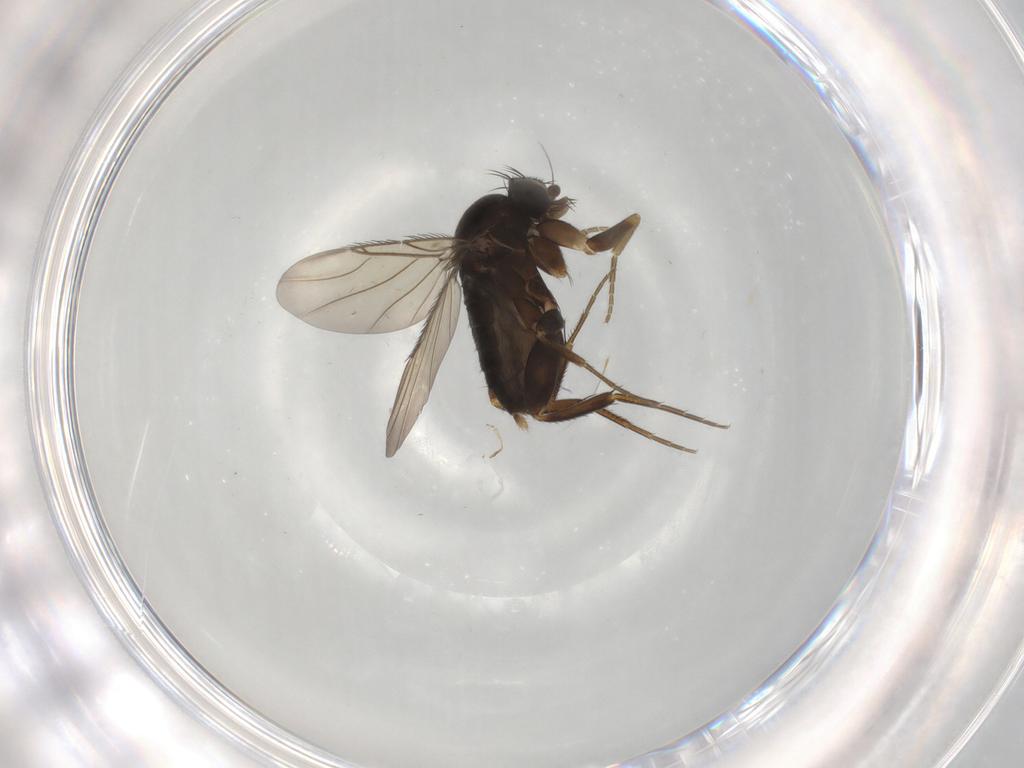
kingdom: Animalia
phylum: Arthropoda
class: Insecta
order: Diptera
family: Phoridae
